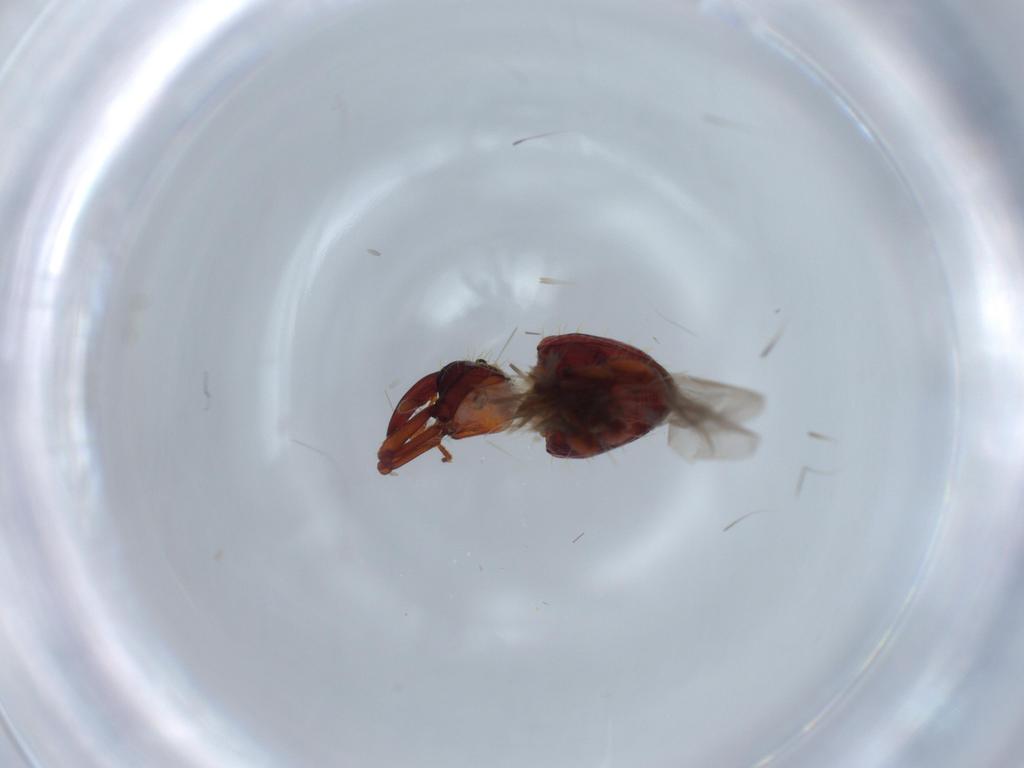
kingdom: Animalia
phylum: Arthropoda
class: Insecta
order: Coleoptera
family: Curculionidae
